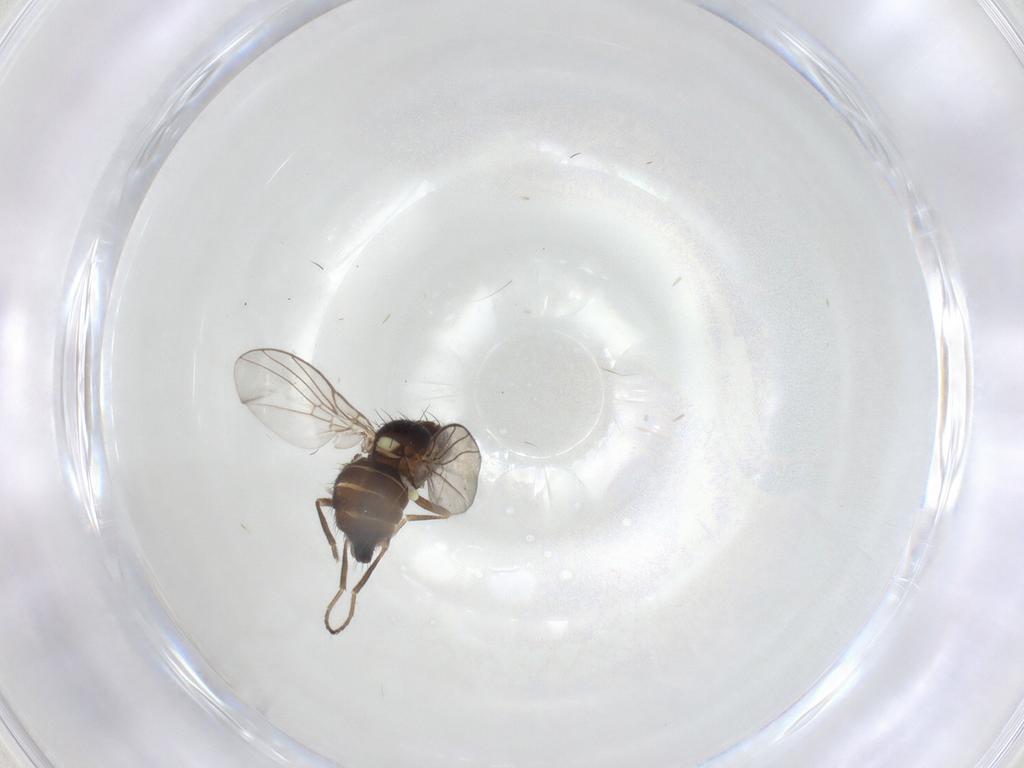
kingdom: Animalia
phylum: Arthropoda
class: Insecta
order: Diptera
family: Agromyzidae
